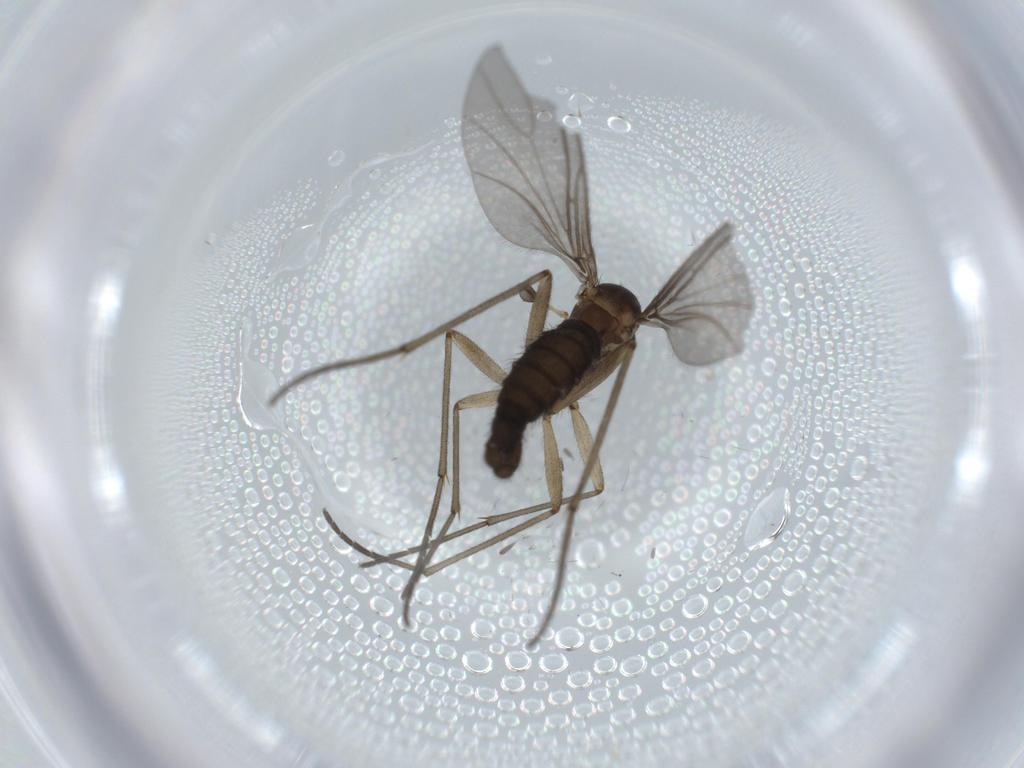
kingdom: Animalia
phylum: Arthropoda
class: Insecta
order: Diptera
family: Sciaridae
